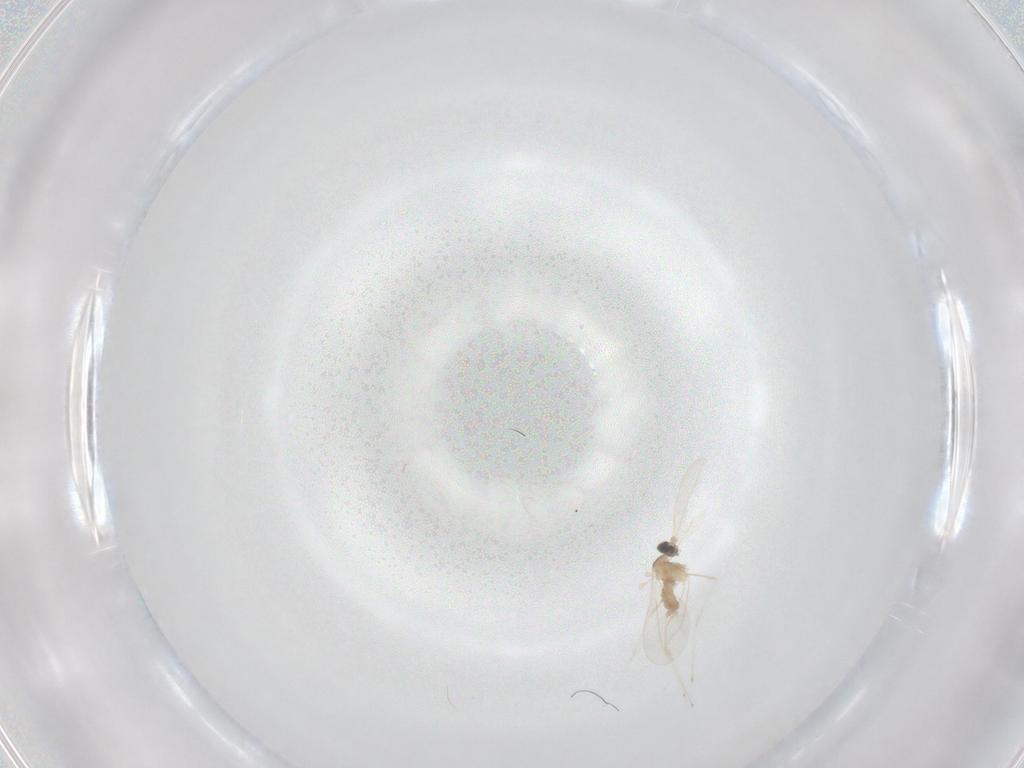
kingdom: Animalia
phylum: Arthropoda
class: Insecta
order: Diptera
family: Cecidomyiidae
